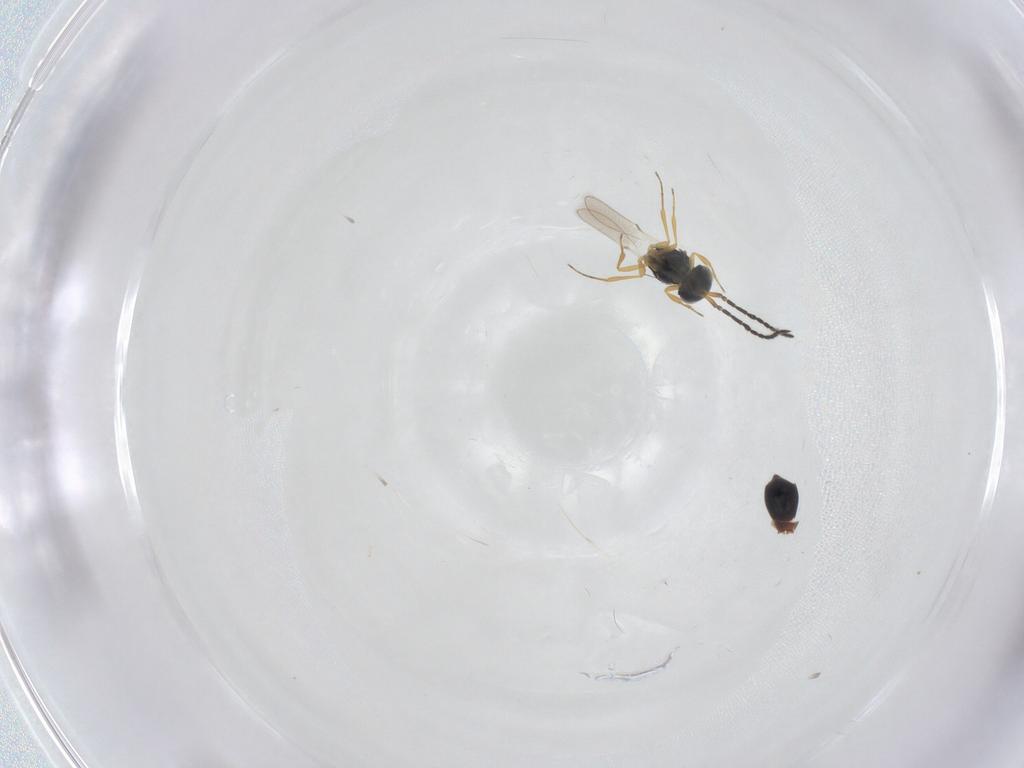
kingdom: Animalia
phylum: Arthropoda
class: Insecta
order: Hymenoptera
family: Scelionidae
